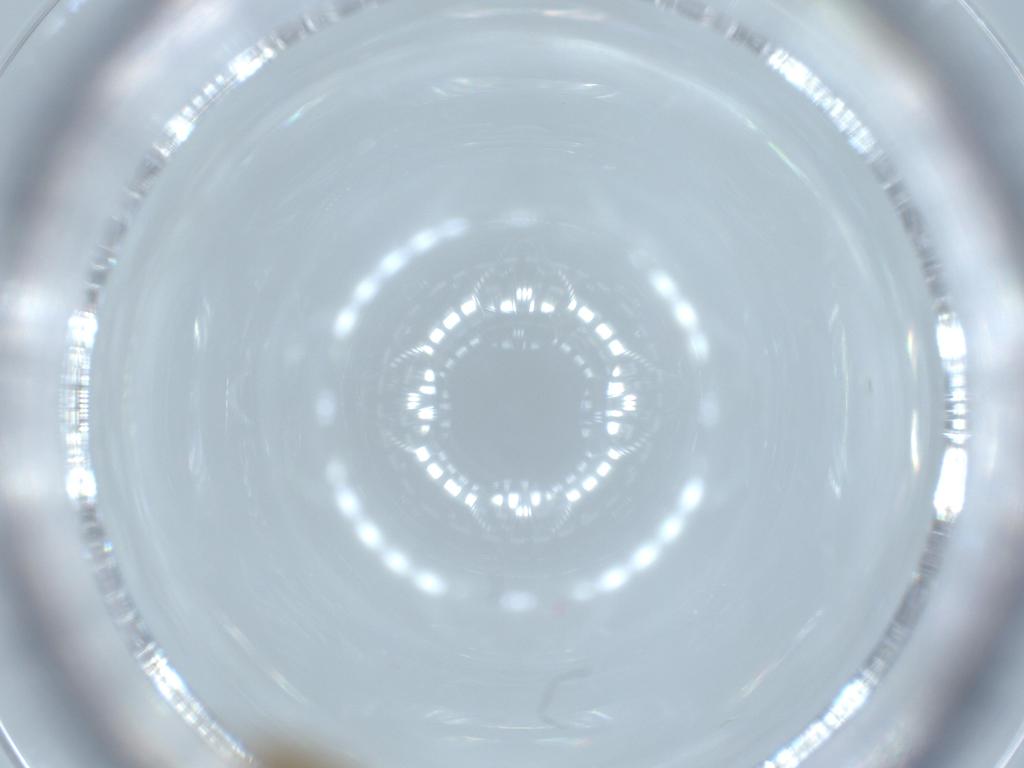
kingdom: Animalia
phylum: Arthropoda
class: Insecta
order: Diptera
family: Chironomidae
